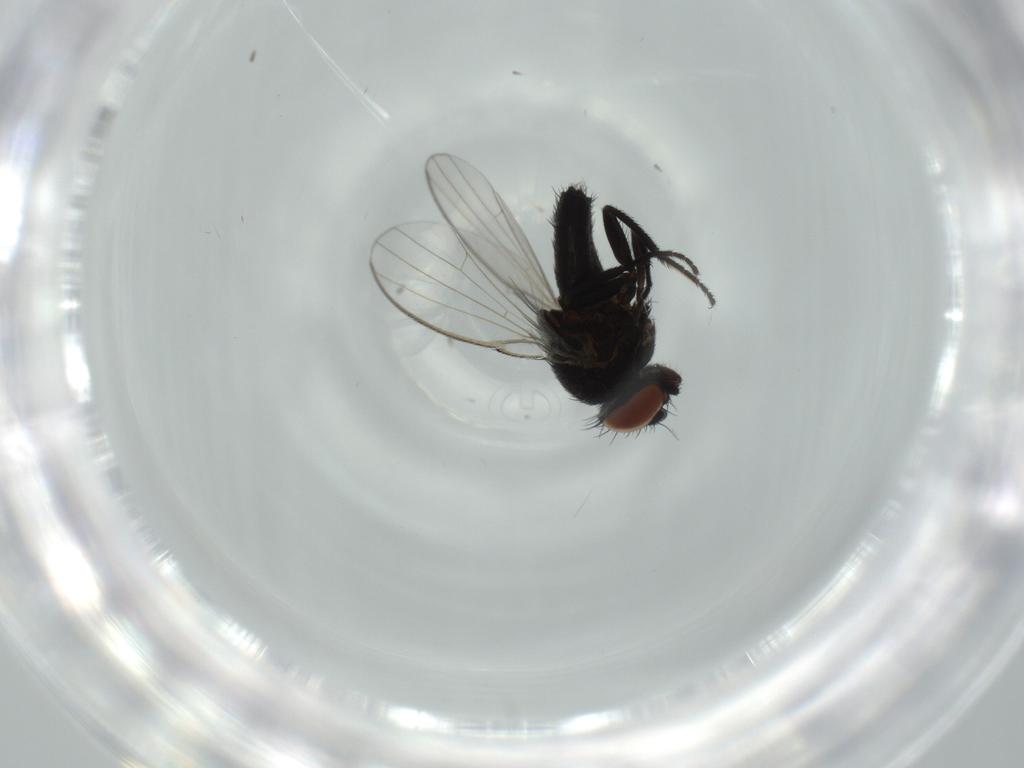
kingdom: Animalia
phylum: Arthropoda
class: Insecta
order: Diptera
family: Milichiidae
